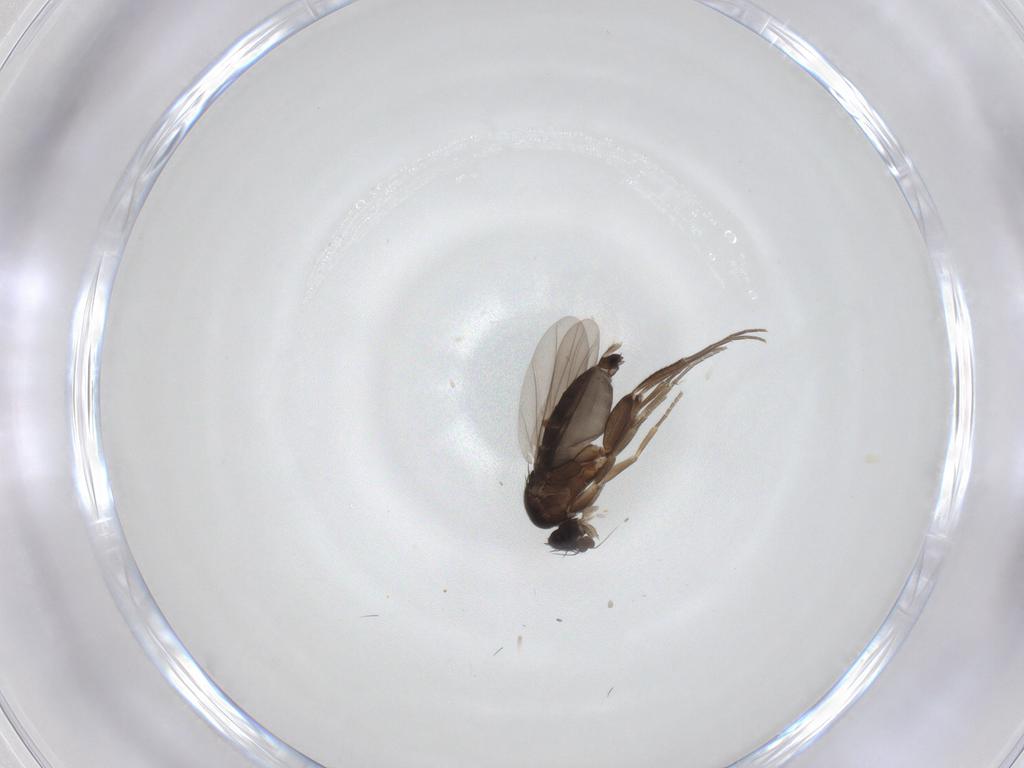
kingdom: Animalia
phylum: Arthropoda
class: Insecta
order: Diptera
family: Phoridae
